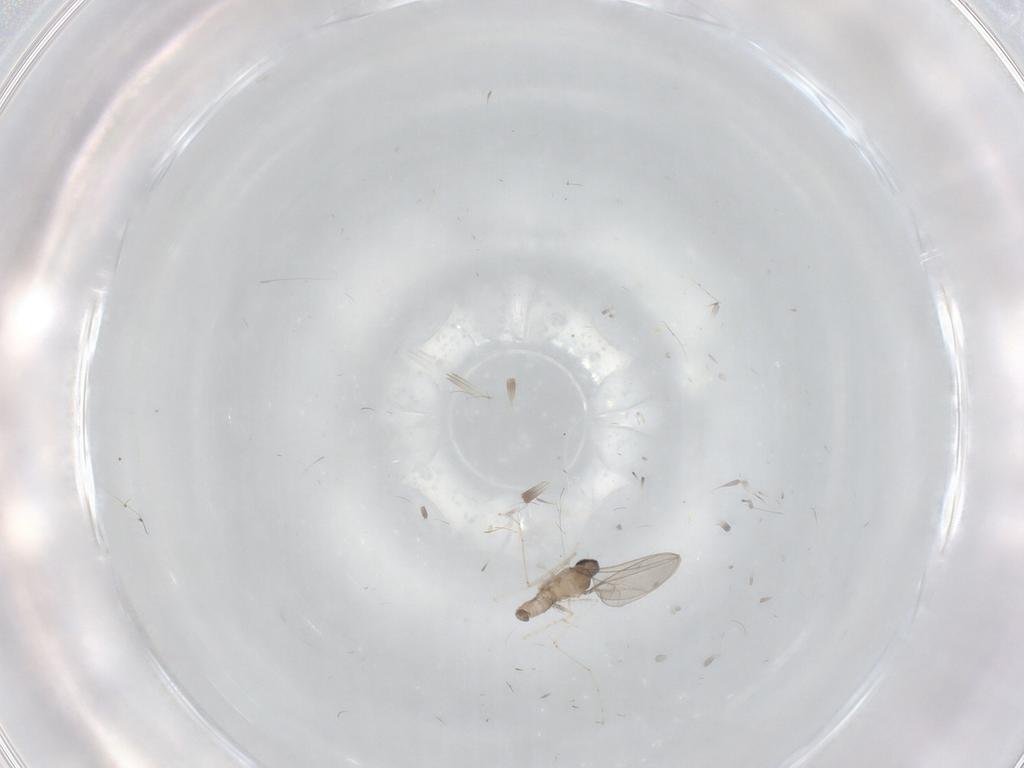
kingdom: Animalia
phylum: Arthropoda
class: Insecta
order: Diptera
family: Cecidomyiidae
